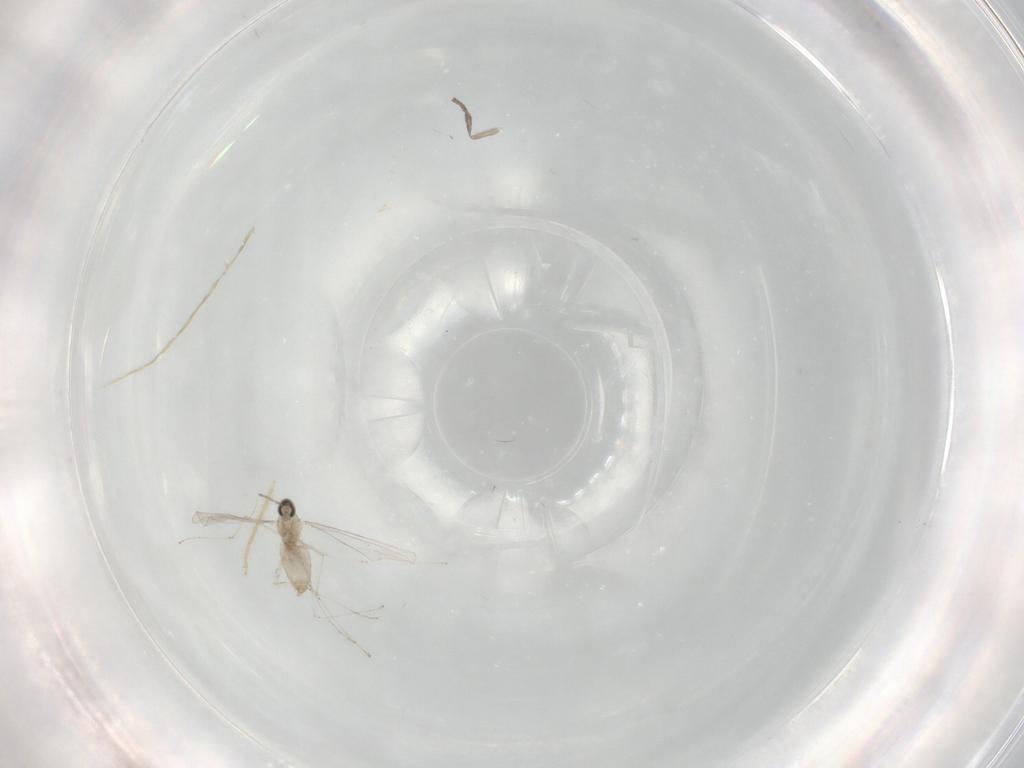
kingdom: Animalia
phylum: Arthropoda
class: Insecta
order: Diptera
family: Cecidomyiidae
